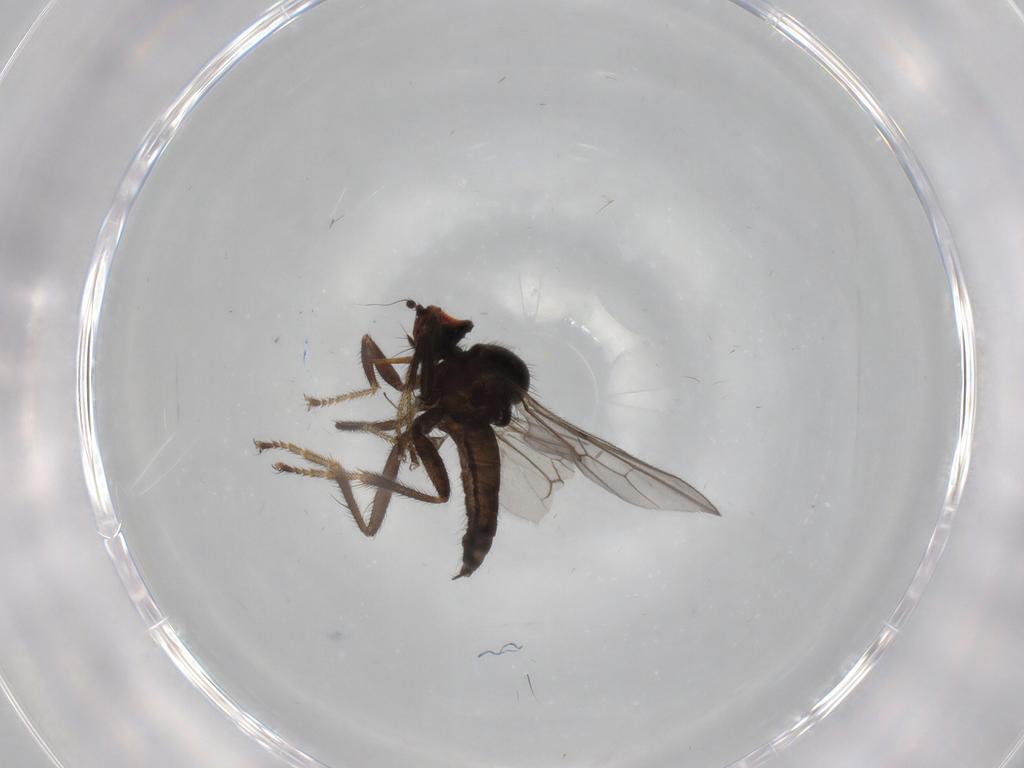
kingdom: Animalia
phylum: Arthropoda
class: Insecta
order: Diptera
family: Hybotidae
